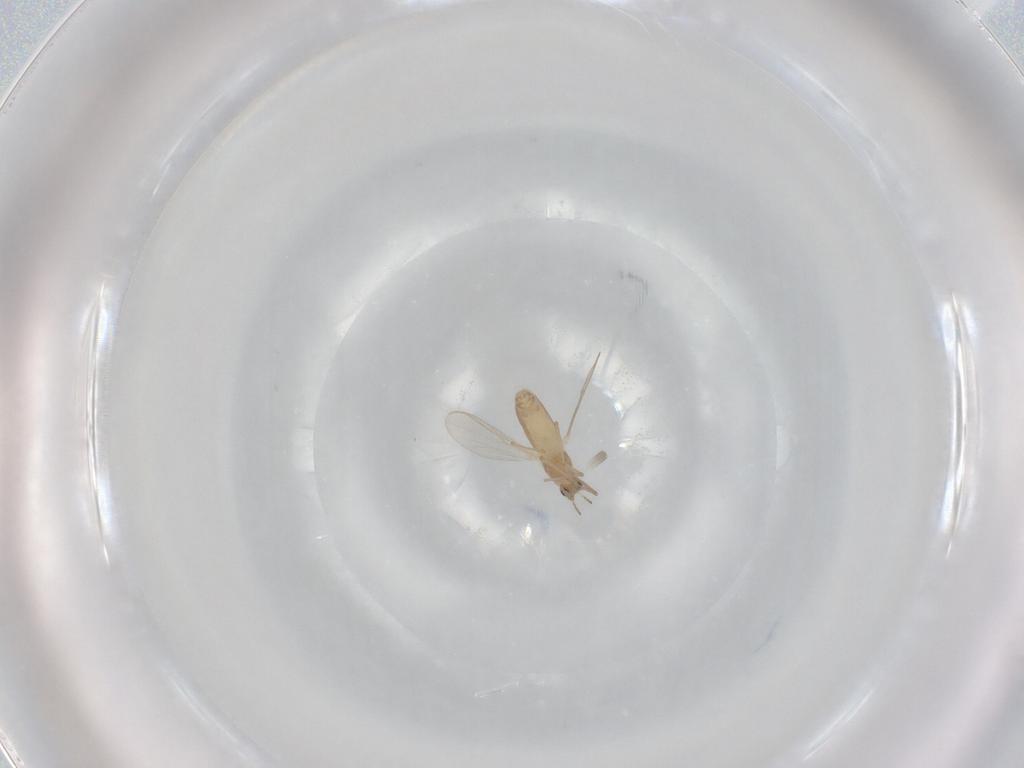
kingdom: Animalia
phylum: Arthropoda
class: Insecta
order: Diptera
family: Chironomidae
